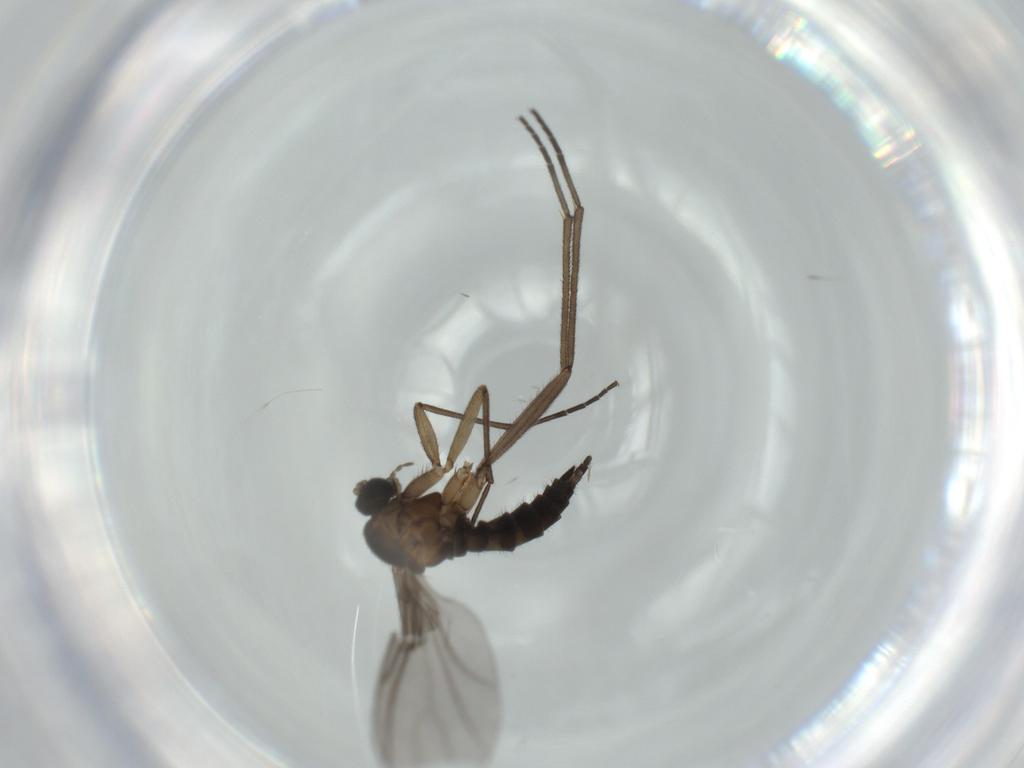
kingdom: Animalia
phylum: Arthropoda
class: Insecta
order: Diptera
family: Sciaridae
